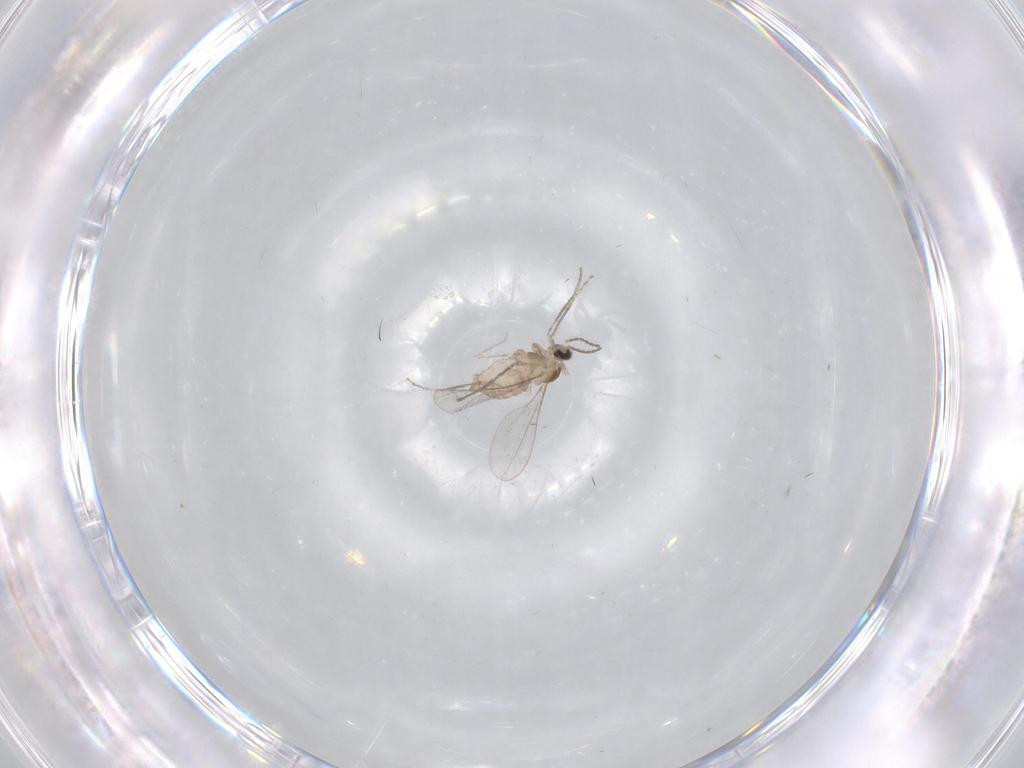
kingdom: Animalia
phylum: Arthropoda
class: Insecta
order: Diptera
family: Cecidomyiidae
